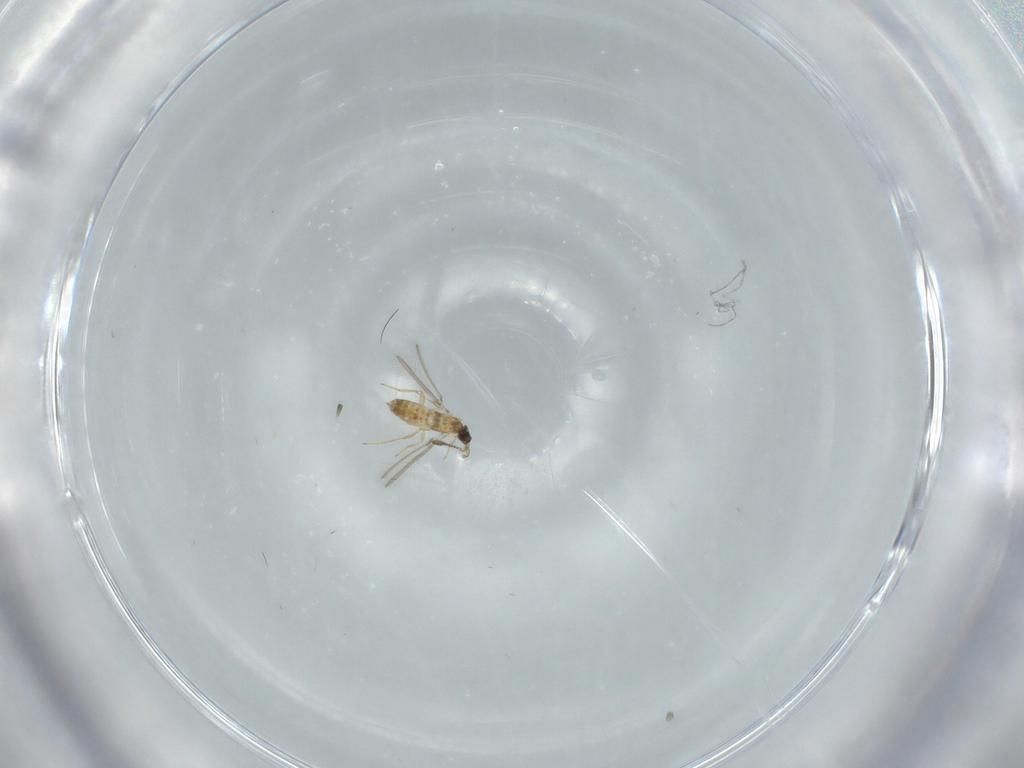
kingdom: Animalia
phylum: Arthropoda
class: Insecta
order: Hymenoptera
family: Mymaridae
